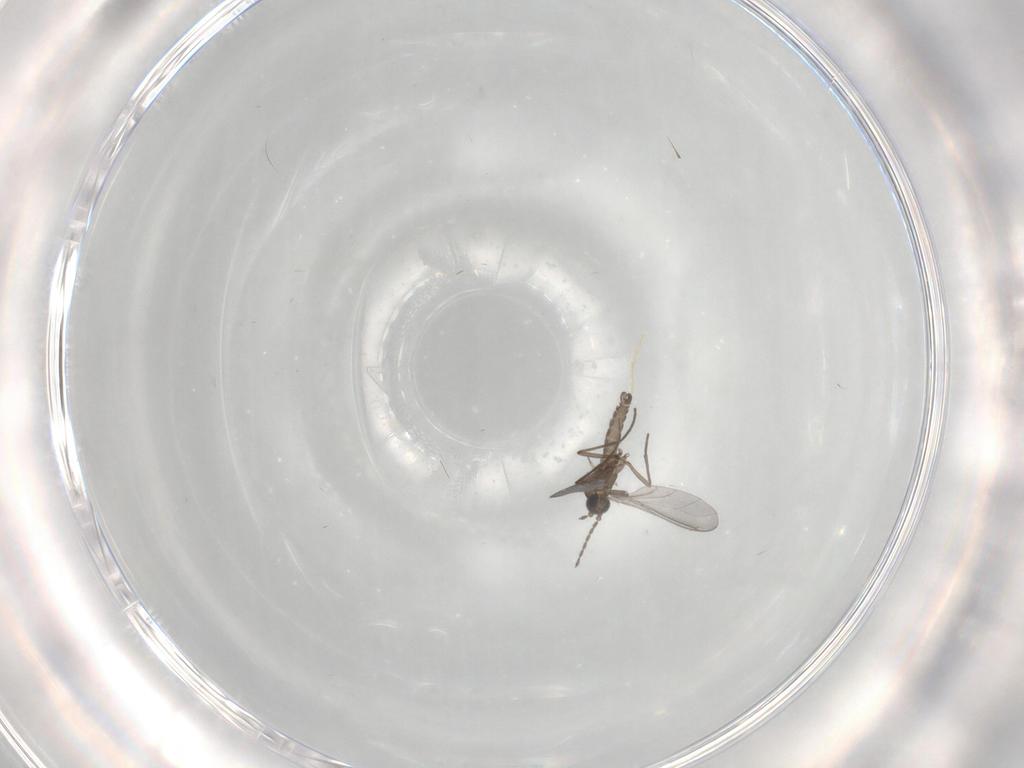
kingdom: Animalia
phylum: Arthropoda
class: Insecta
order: Diptera
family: Sciaridae
